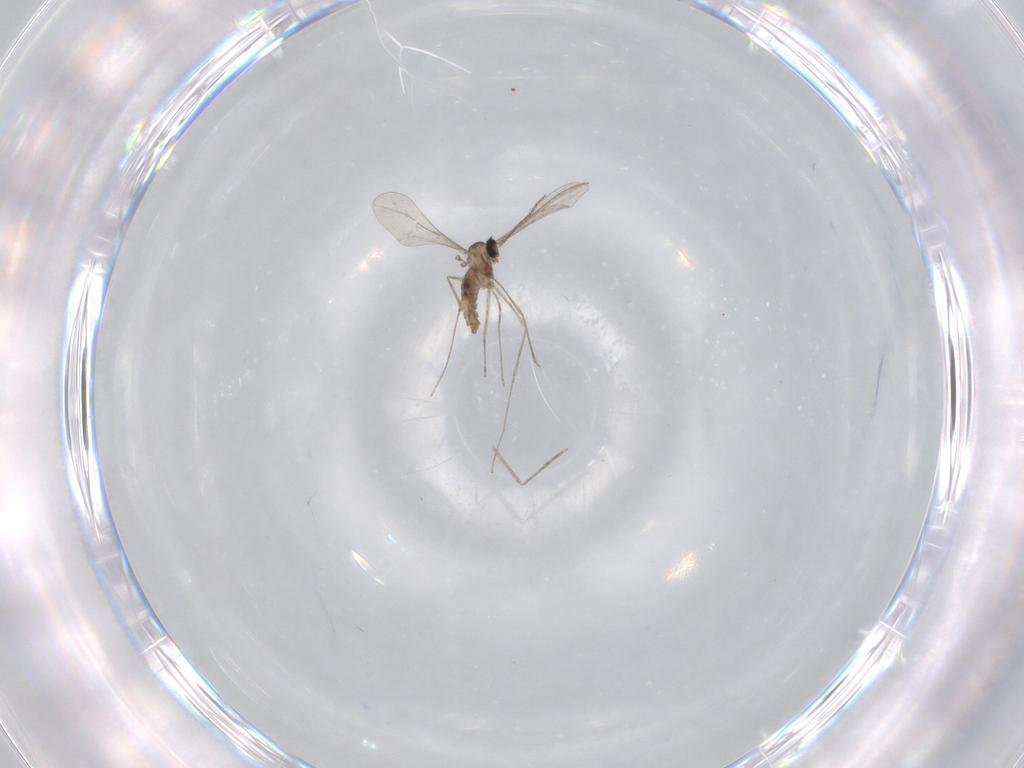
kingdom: Animalia
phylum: Arthropoda
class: Insecta
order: Diptera
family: Cecidomyiidae
